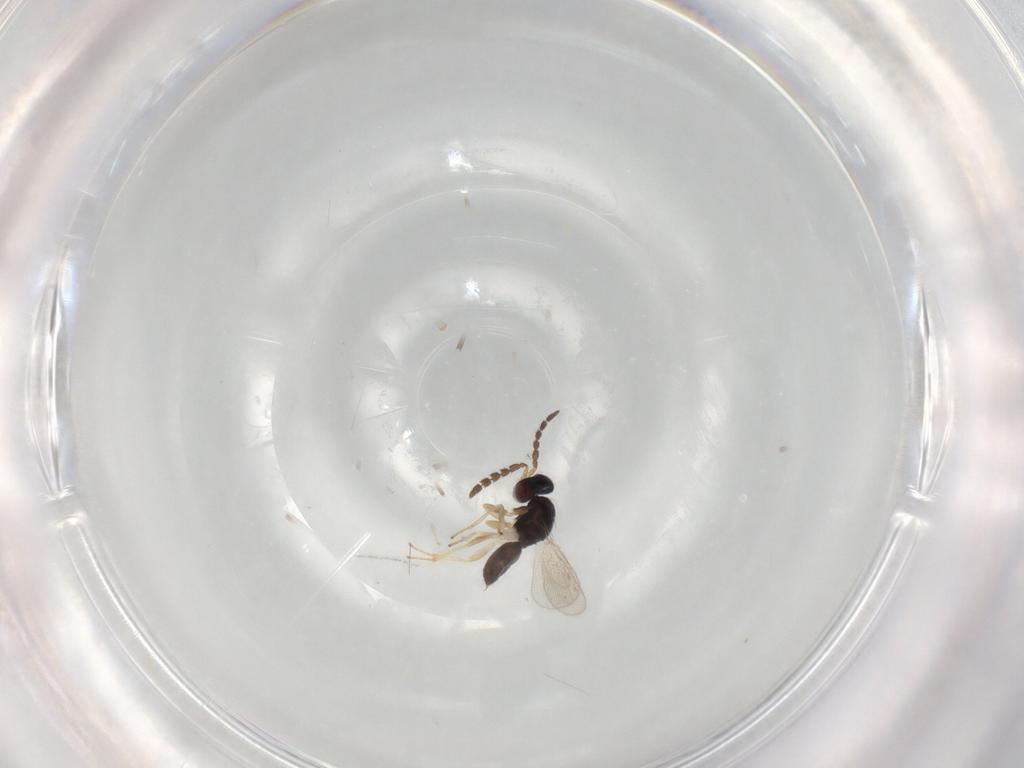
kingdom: Animalia
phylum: Arthropoda
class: Insecta
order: Hymenoptera
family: Eulophidae
